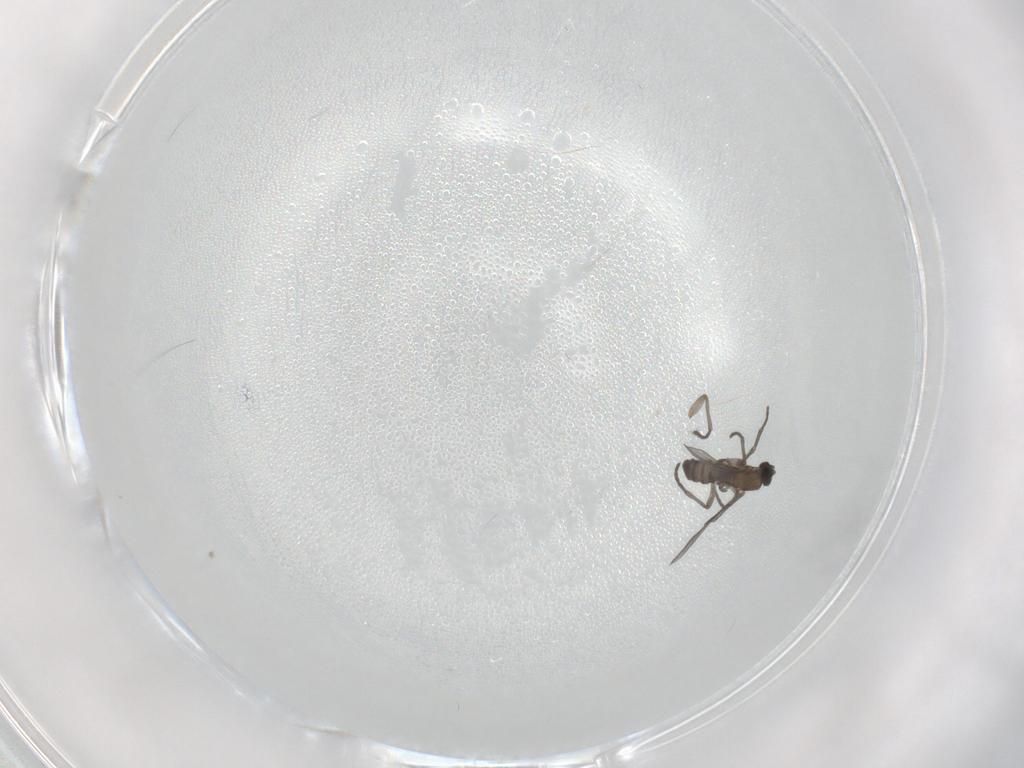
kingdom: Animalia
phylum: Arthropoda
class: Insecta
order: Diptera
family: Sciaridae
